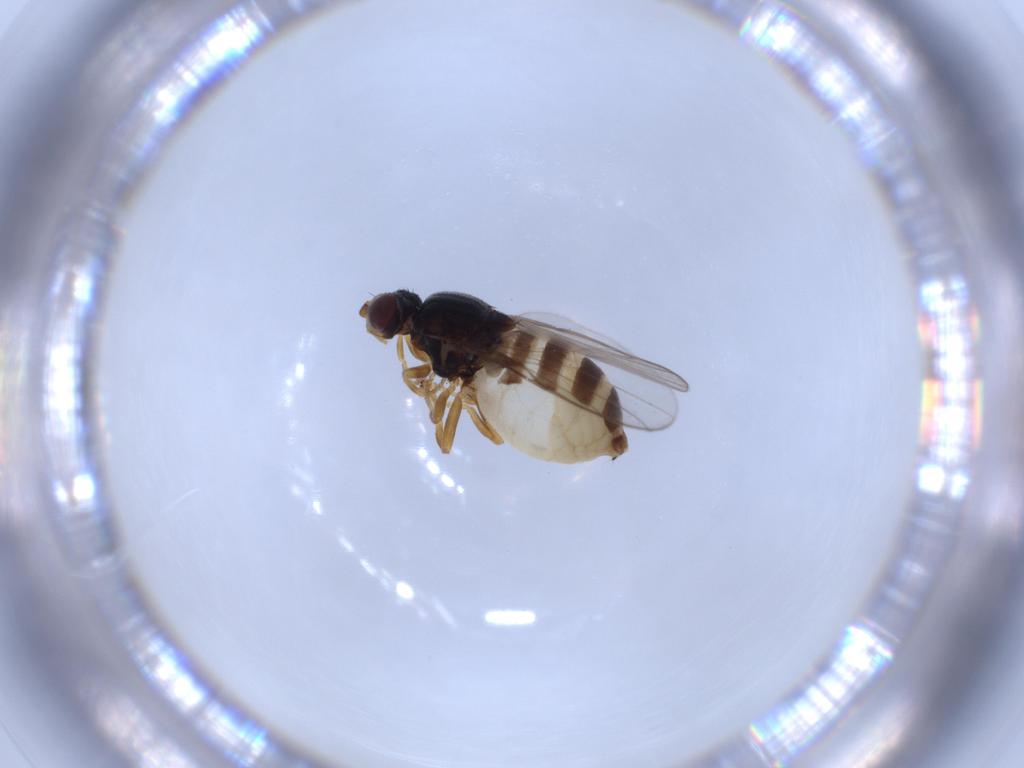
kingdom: Animalia
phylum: Arthropoda
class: Insecta
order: Diptera
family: Chloropidae
